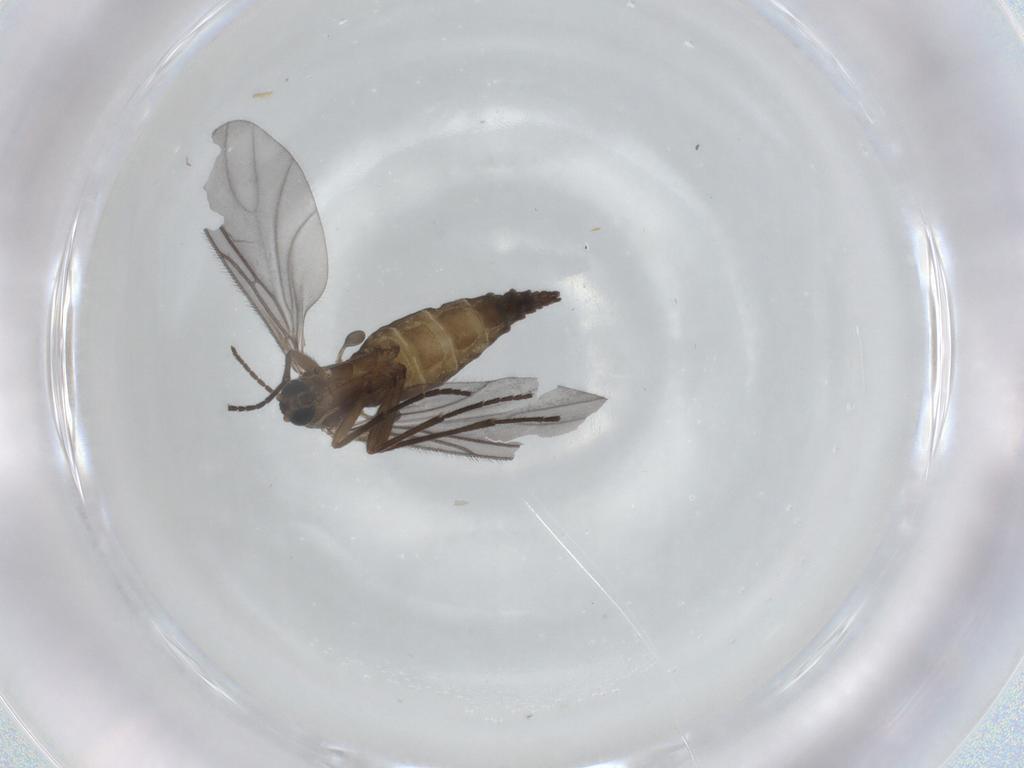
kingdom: Animalia
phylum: Arthropoda
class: Insecta
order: Diptera
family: Sciaridae
